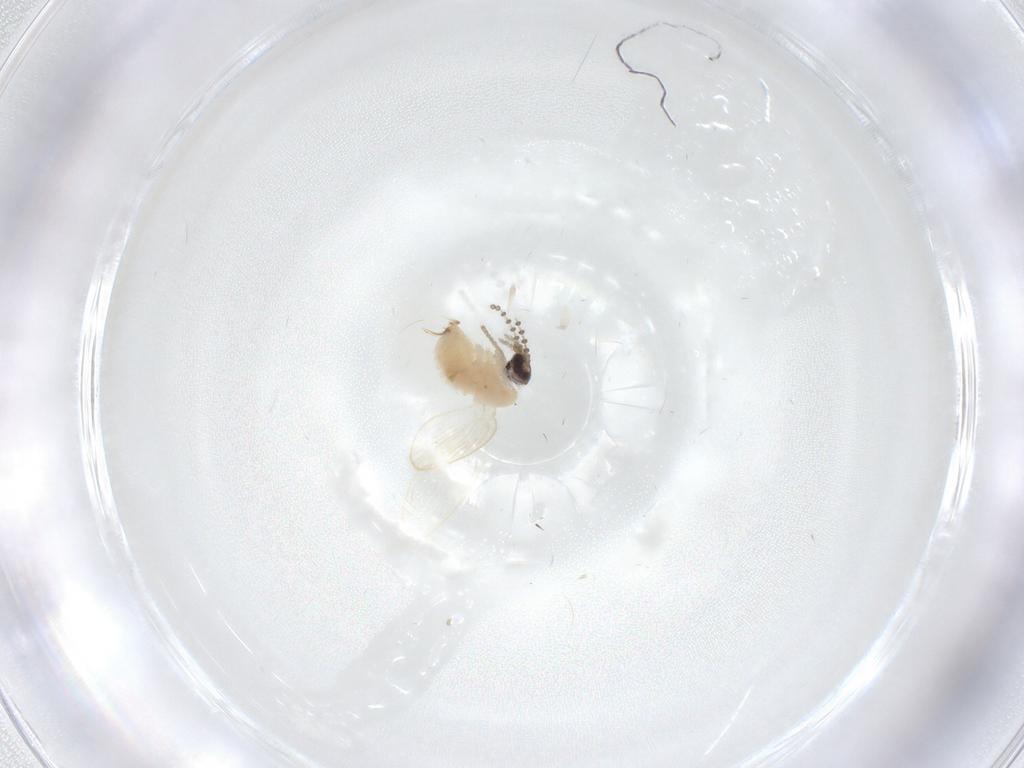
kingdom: Animalia
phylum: Arthropoda
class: Insecta
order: Diptera
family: Psychodidae
